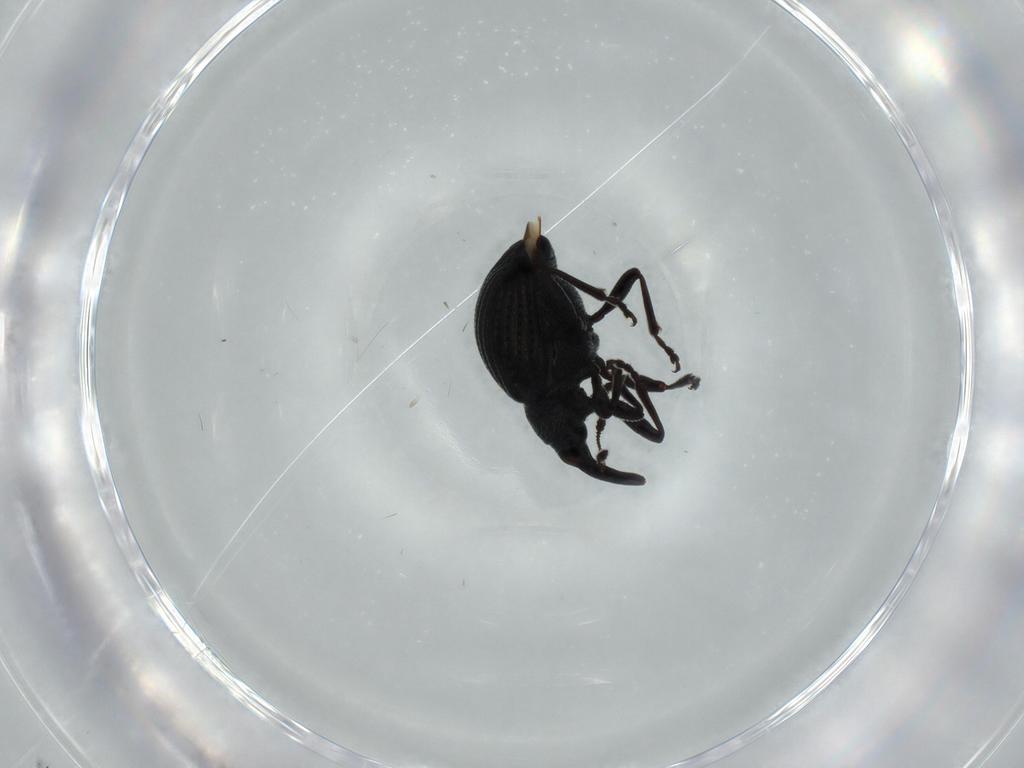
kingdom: Animalia
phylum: Arthropoda
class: Insecta
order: Coleoptera
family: Brentidae
